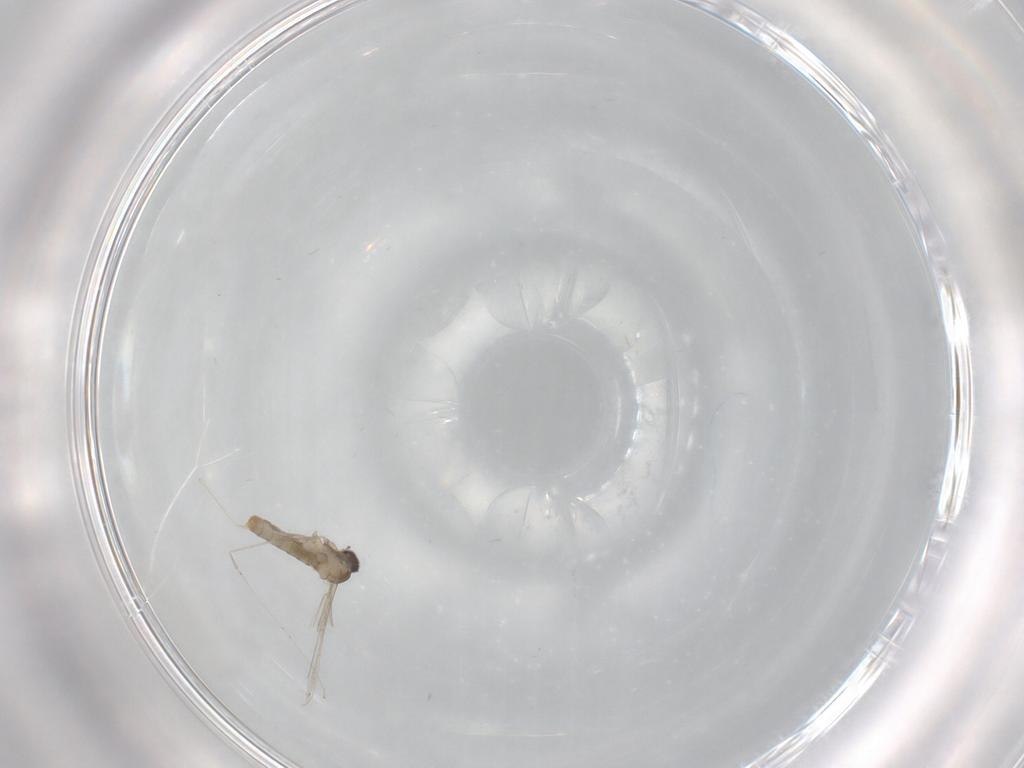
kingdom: Animalia
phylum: Arthropoda
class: Insecta
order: Diptera
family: Cecidomyiidae
